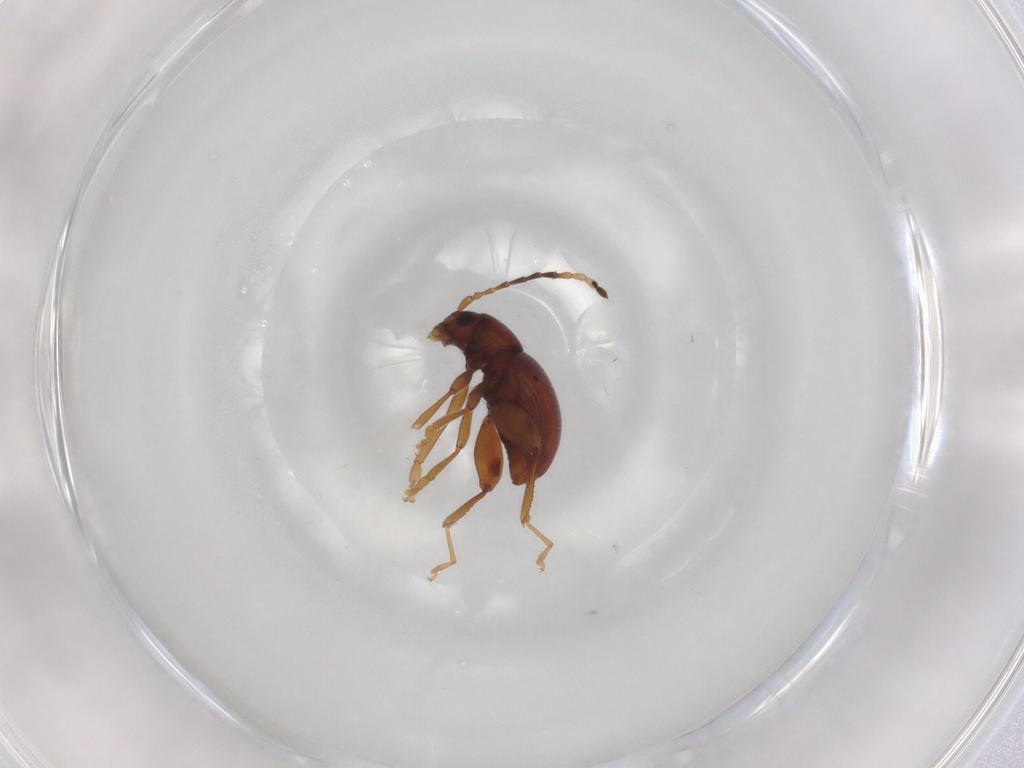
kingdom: Animalia
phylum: Arthropoda
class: Insecta
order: Coleoptera
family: Chrysomelidae
